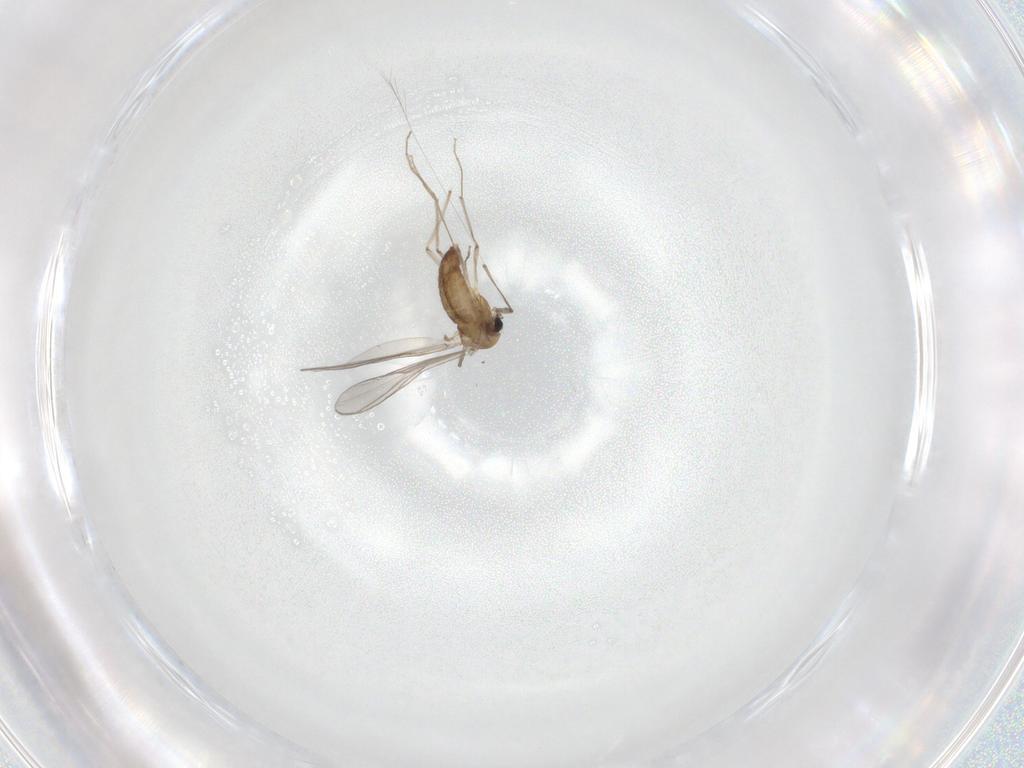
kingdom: Animalia
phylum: Arthropoda
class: Insecta
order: Diptera
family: Chironomidae
